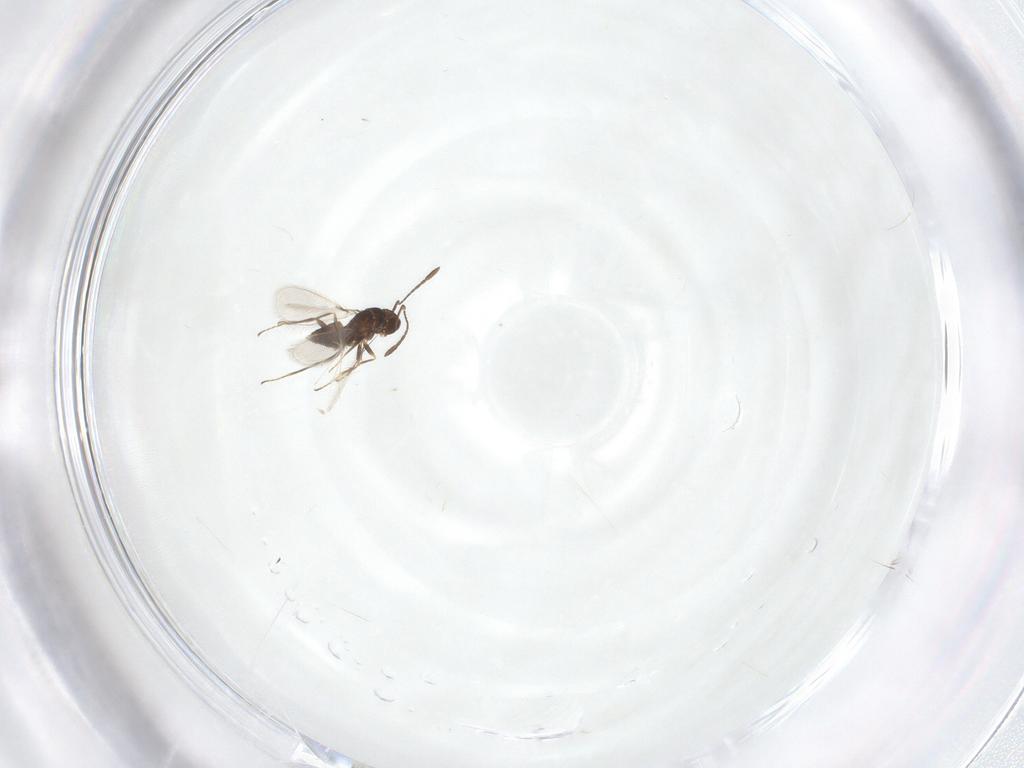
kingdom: Animalia
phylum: Arthropoda
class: Insecta
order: Hymenoptera
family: Mymaridae
